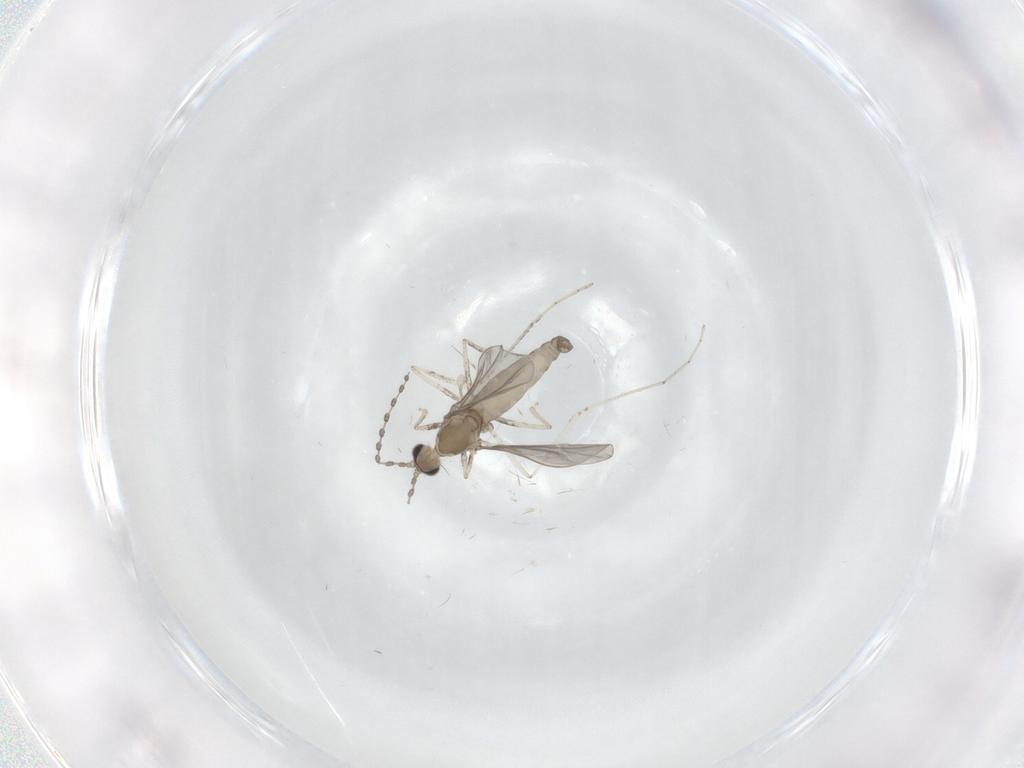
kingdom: Animalia
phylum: Arthropoda
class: Insecta
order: Diptera
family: Cecidomyiidae
